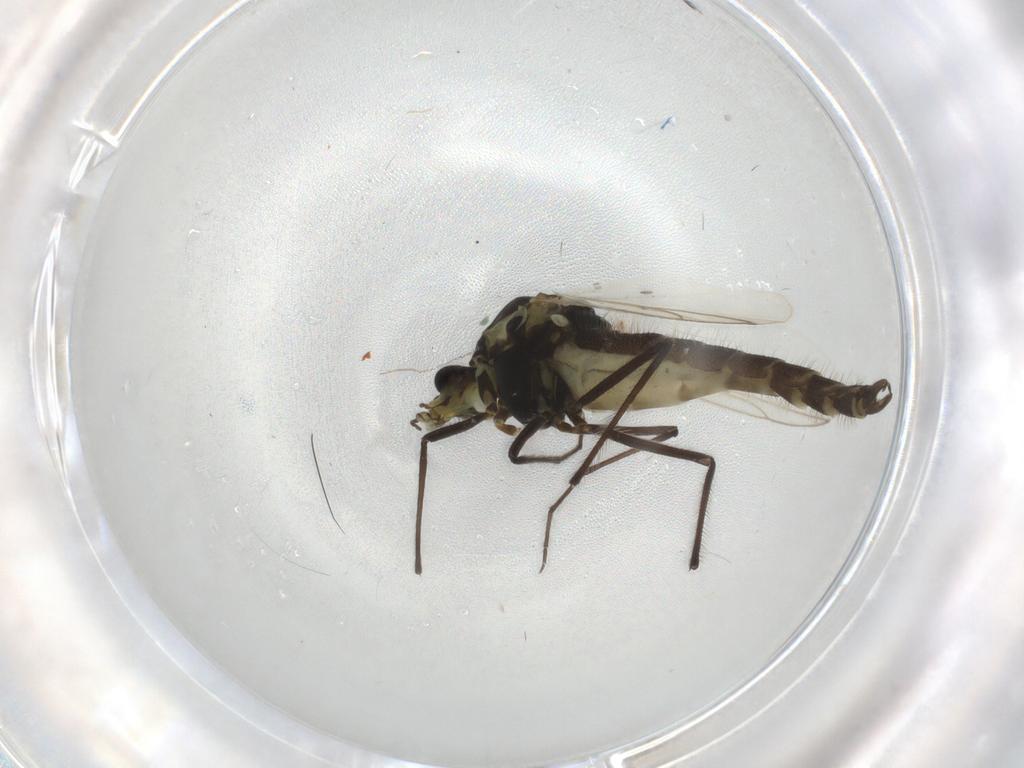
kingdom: Animalia
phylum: Arthropoda
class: Insecta
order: Diptera
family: Chironomidae
